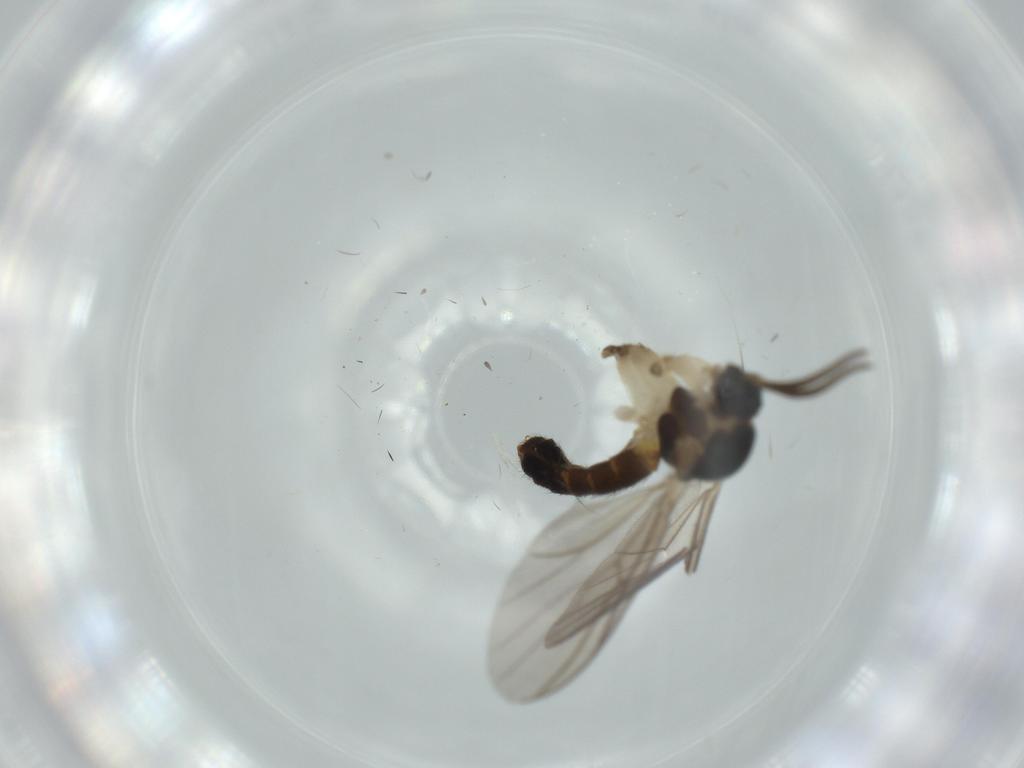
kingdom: Animalia
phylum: Arthropoda
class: Insecta
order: Diptera
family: Mycetophilidae
